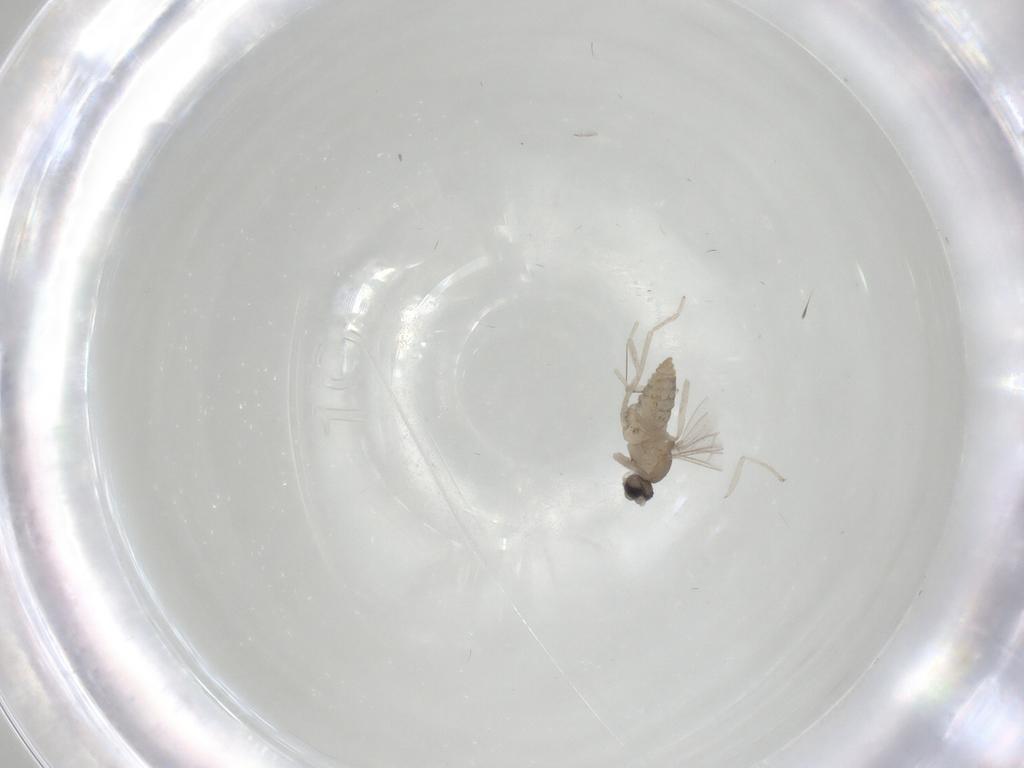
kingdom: Animalia
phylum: Arthropoda
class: Insecta
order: Diptera
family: Cecidomyiidae
